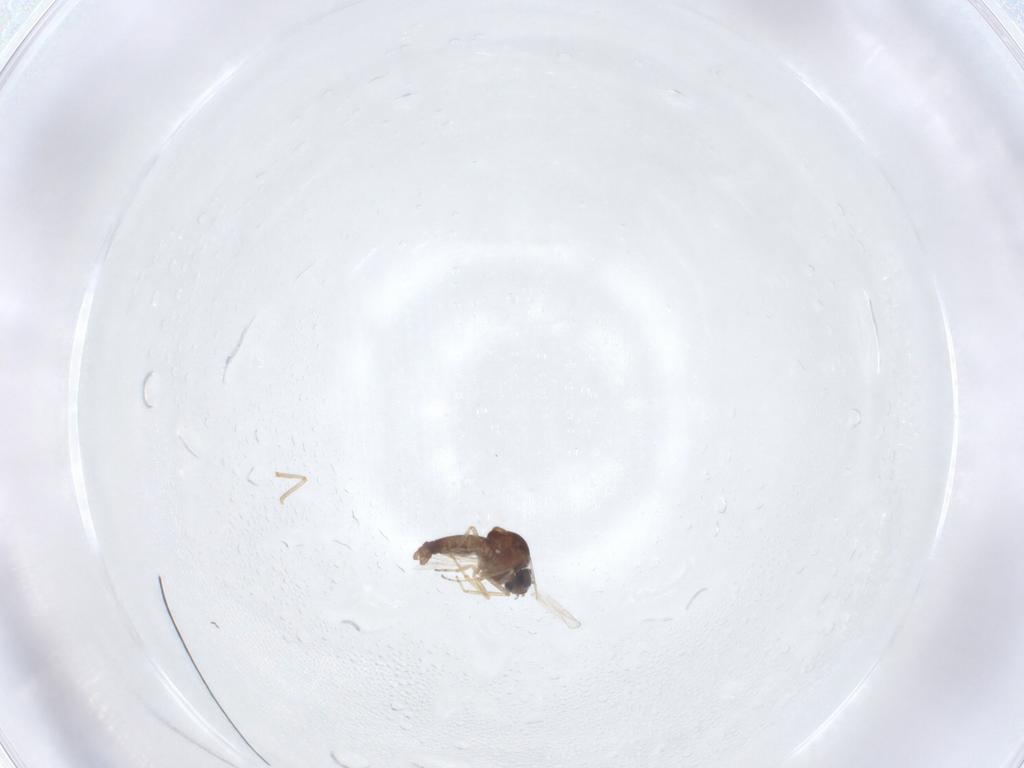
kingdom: Animalia
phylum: Arthropoda
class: Insecta
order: Diptera
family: Ceratopogonidae
